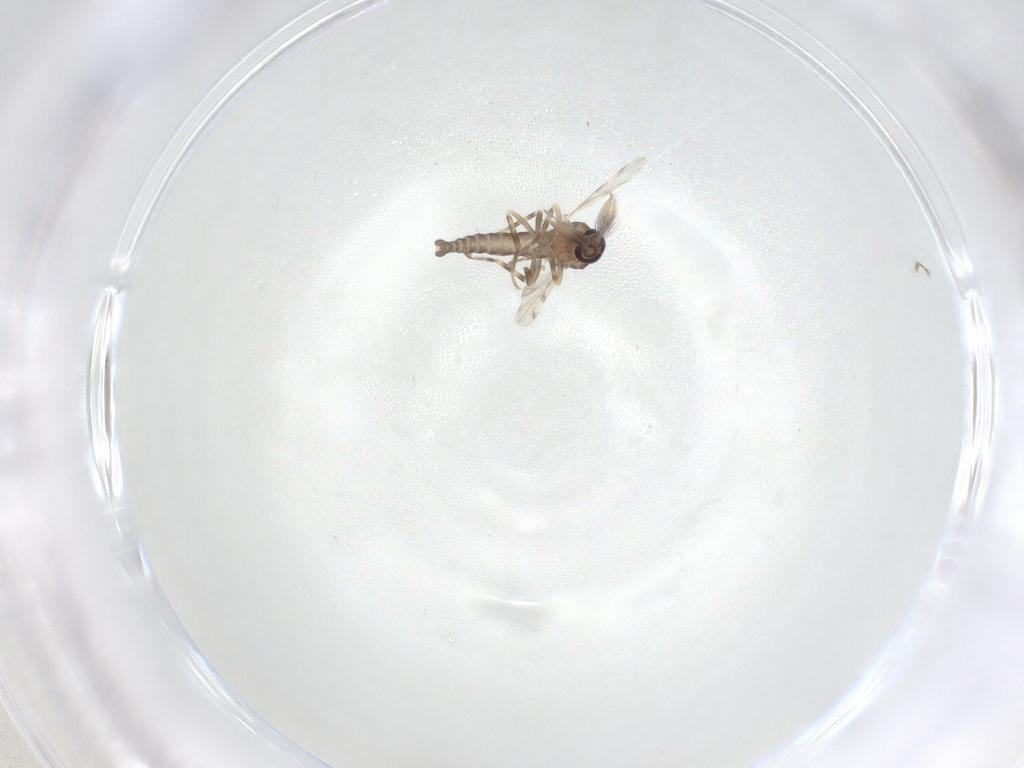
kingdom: Animalia
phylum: Arthropoda
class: Insecta
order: Diptera
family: Ceratopogonidae
